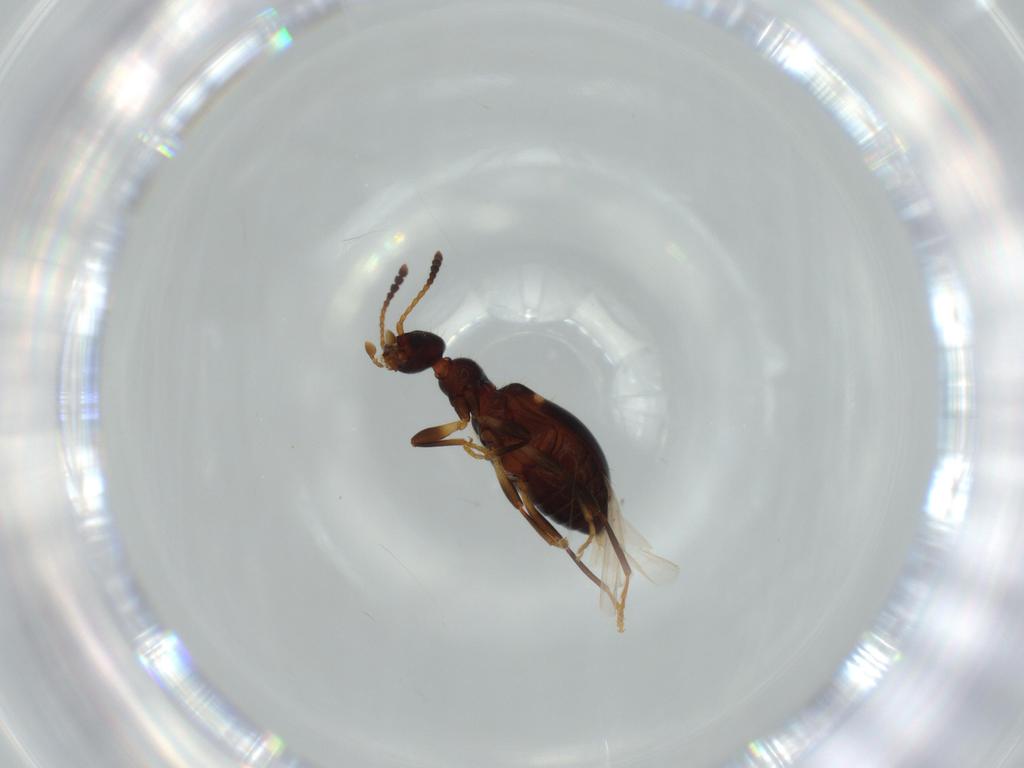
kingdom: Animalia
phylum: Arthropoda
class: Insecta
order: Coleoptera
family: Anthicidae
